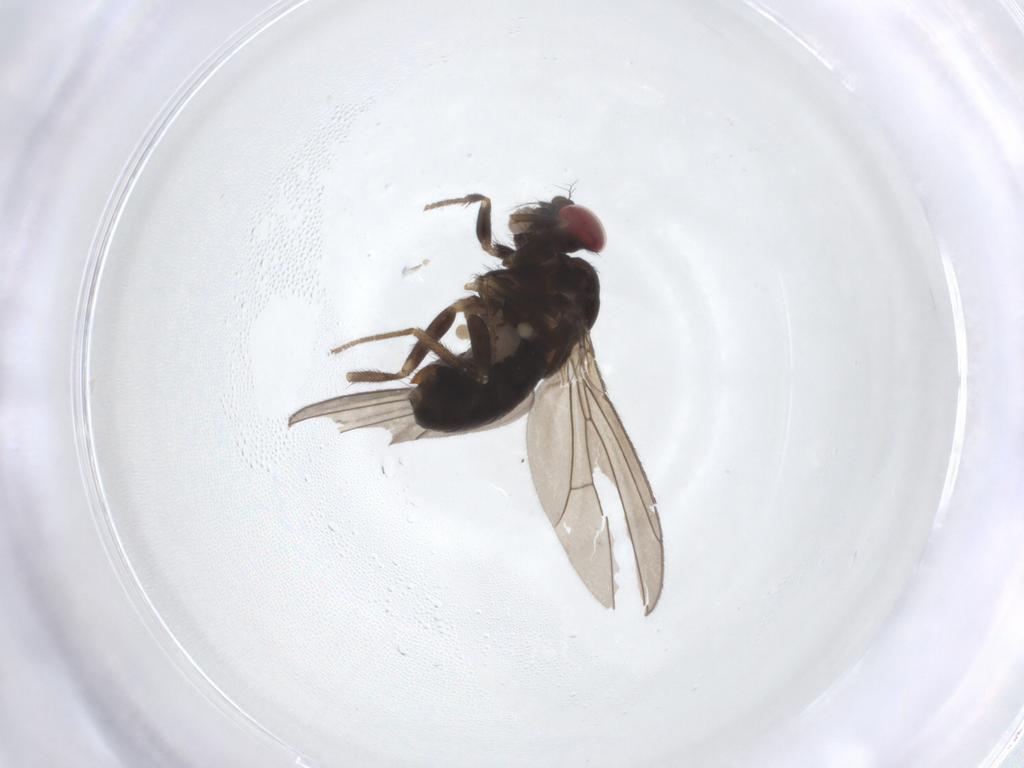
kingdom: Animalia
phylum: Arthropoda
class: Insecta
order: Diptera
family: Drosophilidae
